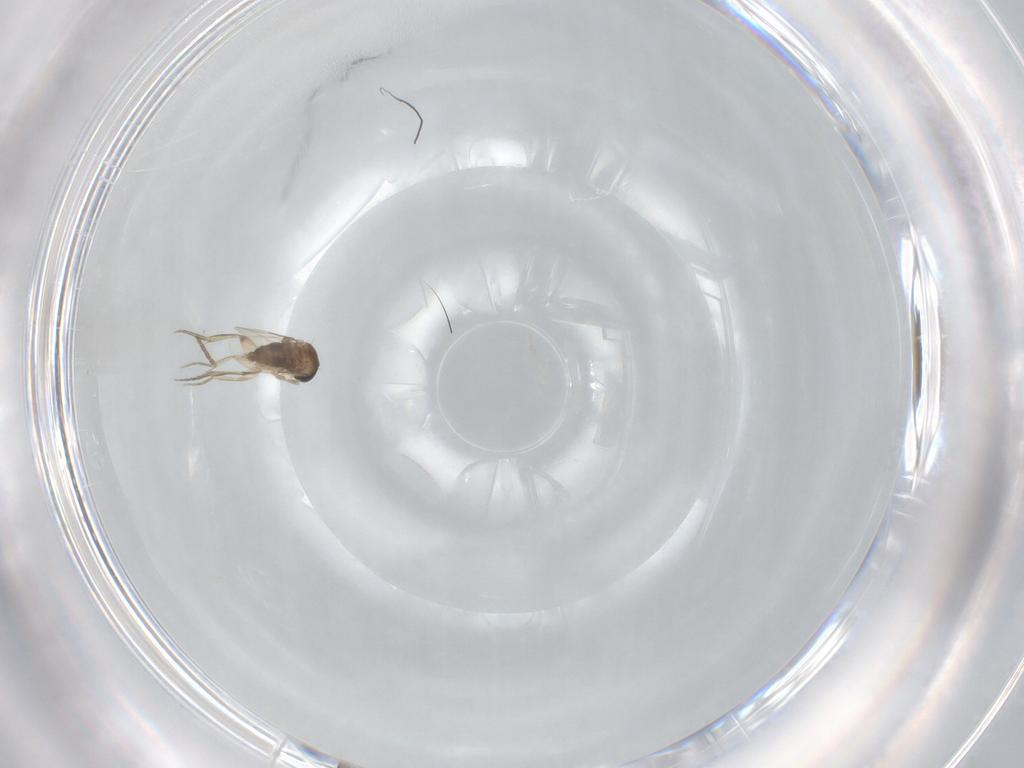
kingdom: Animalia
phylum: Arthropoda
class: Insecta
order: Diptera
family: Phoridae
